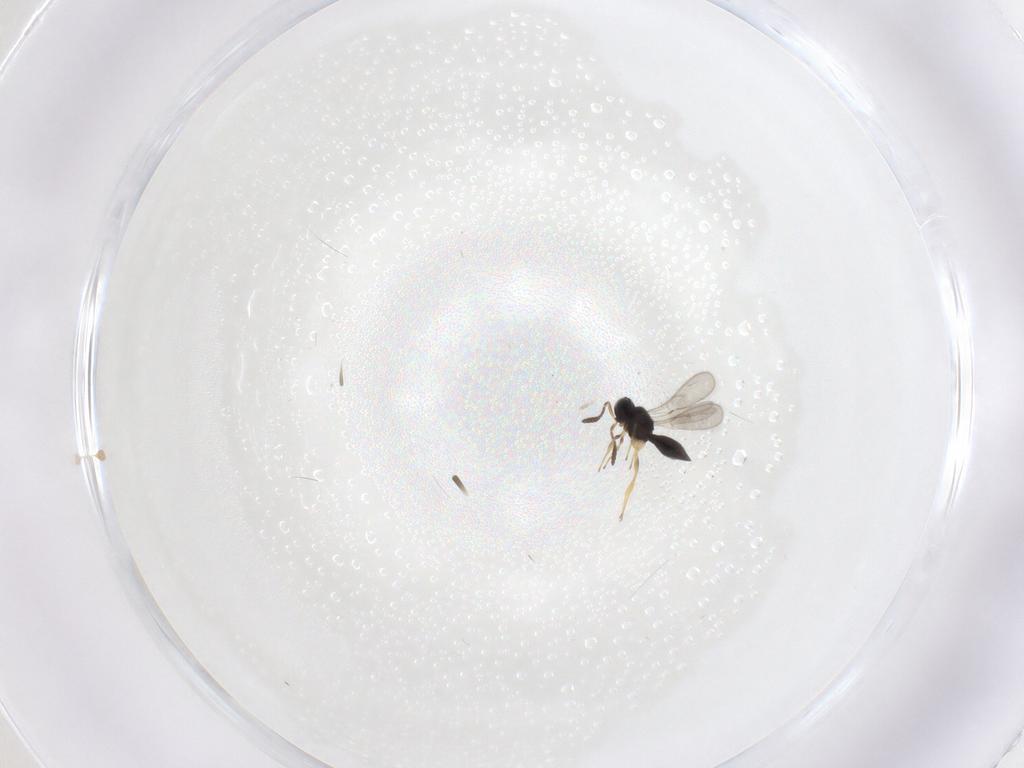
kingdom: Animalia
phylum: Arthropoda
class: Insecta
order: Hymenoptera
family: Scelionidae
